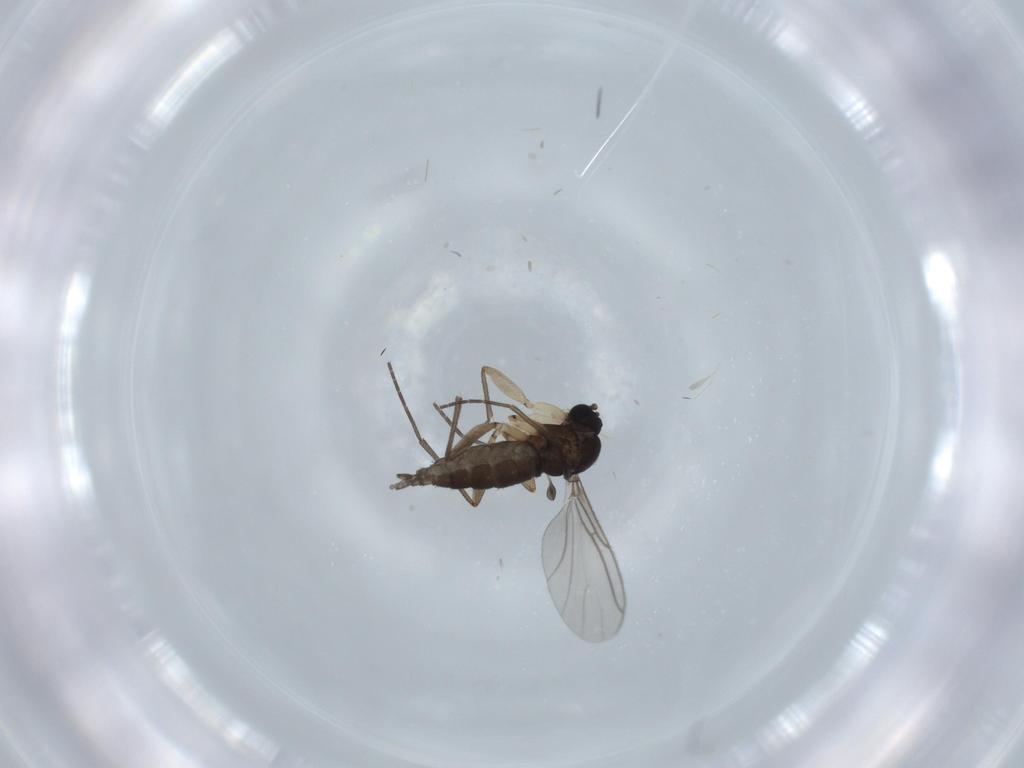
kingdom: Animalia
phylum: Arthropoda
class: Insecta
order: Diptera
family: Sciaridae
